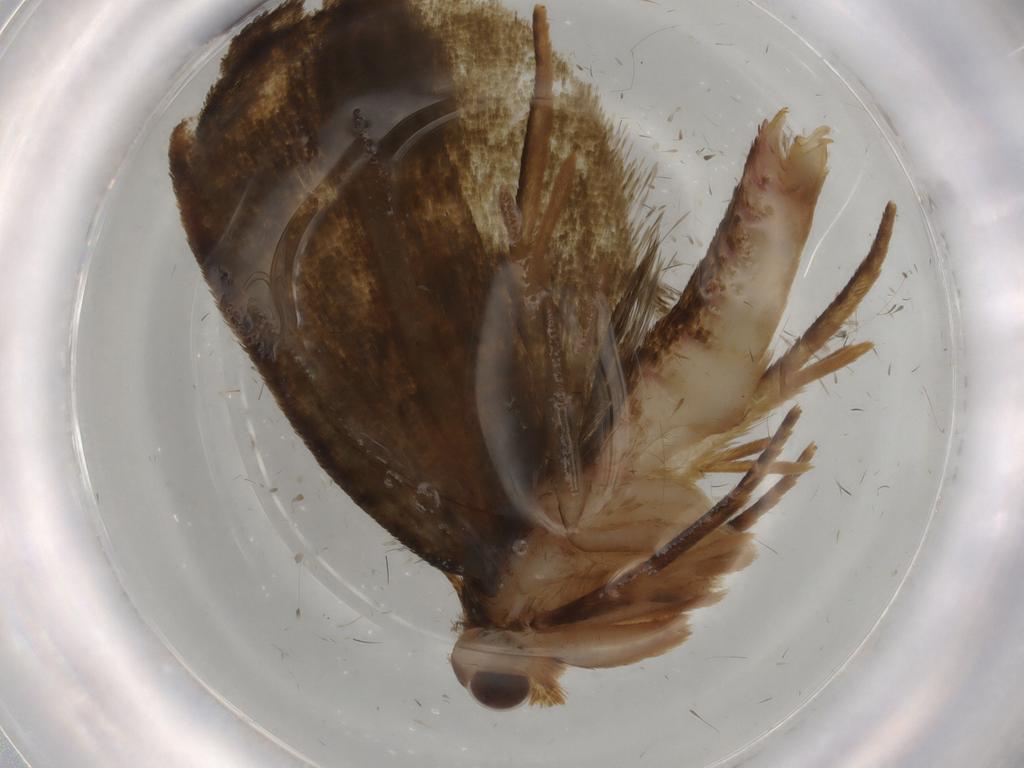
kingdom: Animalia
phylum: Arthropoda
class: Insecta
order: Lepidoptera
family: Geometridae
